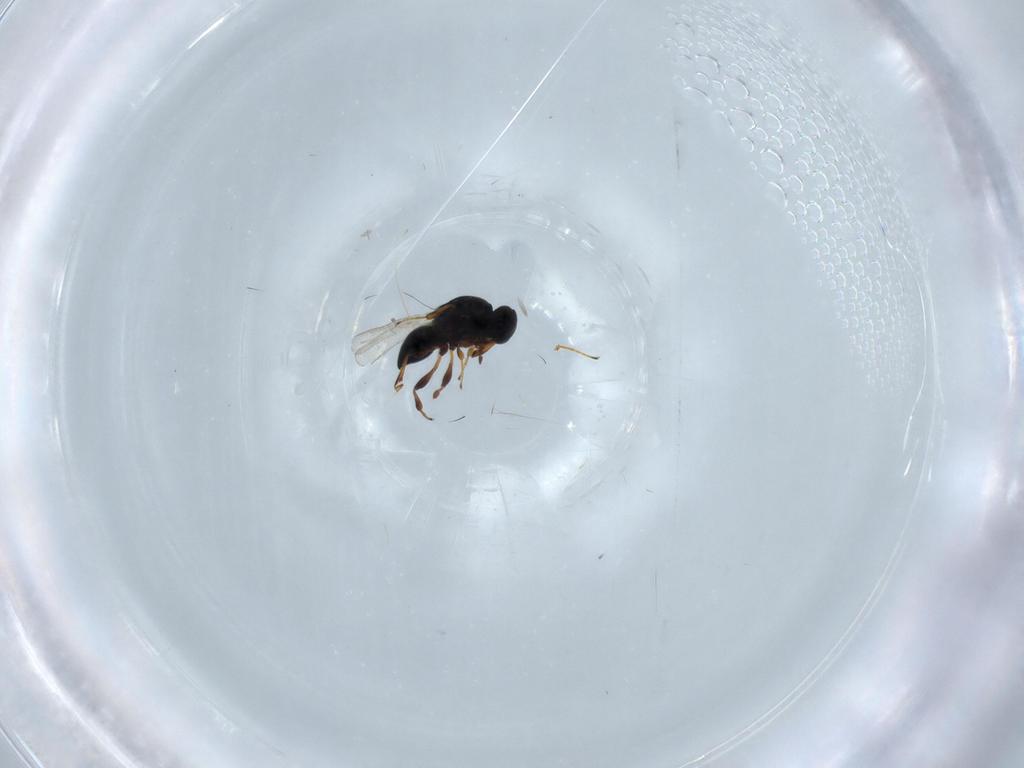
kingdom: Animalia
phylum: Arthropoda
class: Insecta
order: Hymenoptera
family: Platygastridae
